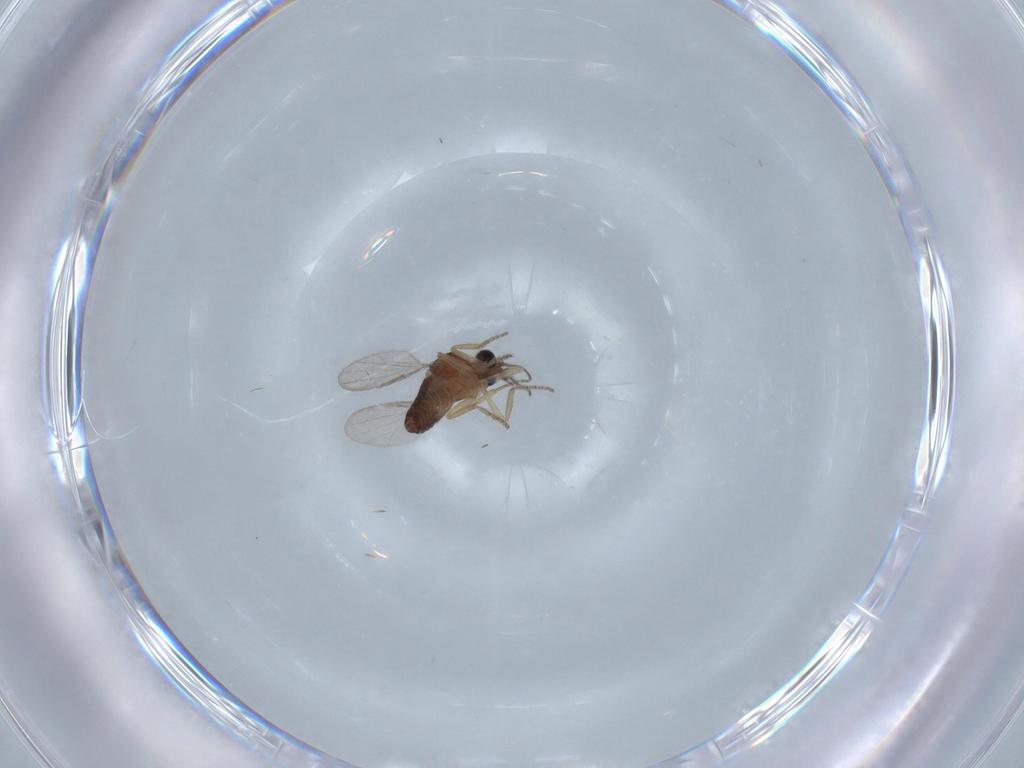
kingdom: Animalia
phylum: Arthropoda
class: Insecta
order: Diptera
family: Ceratopogonidae
